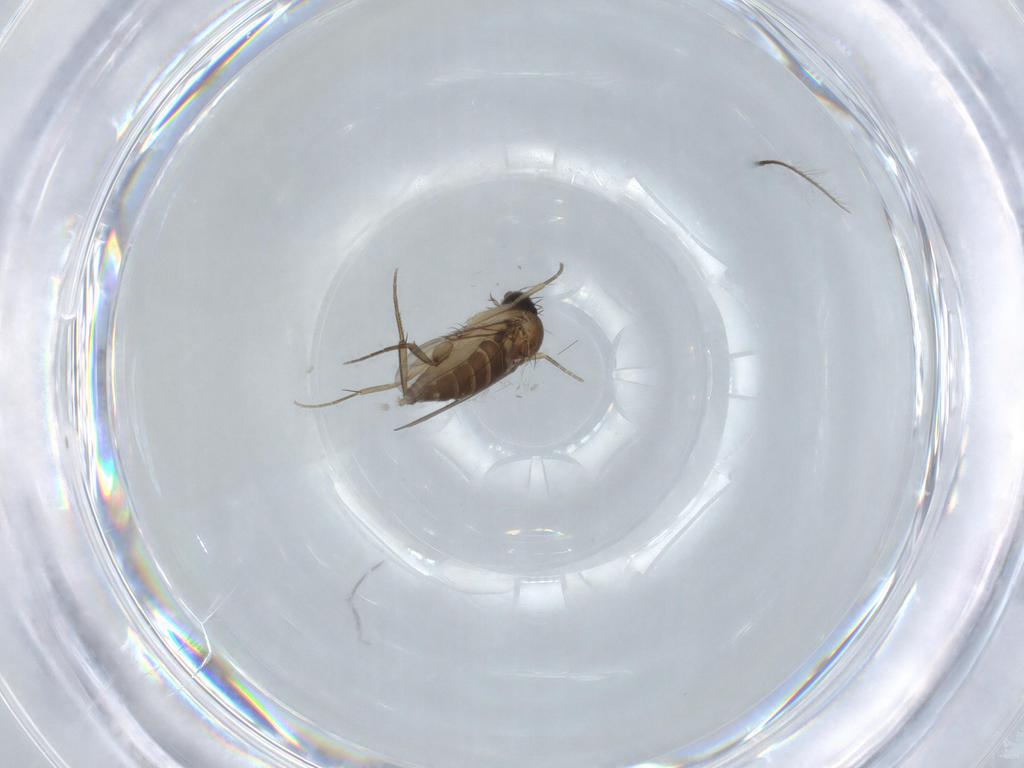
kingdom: Animalia
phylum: Arthropoda
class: Insecta
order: Diptera
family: Phoridae
